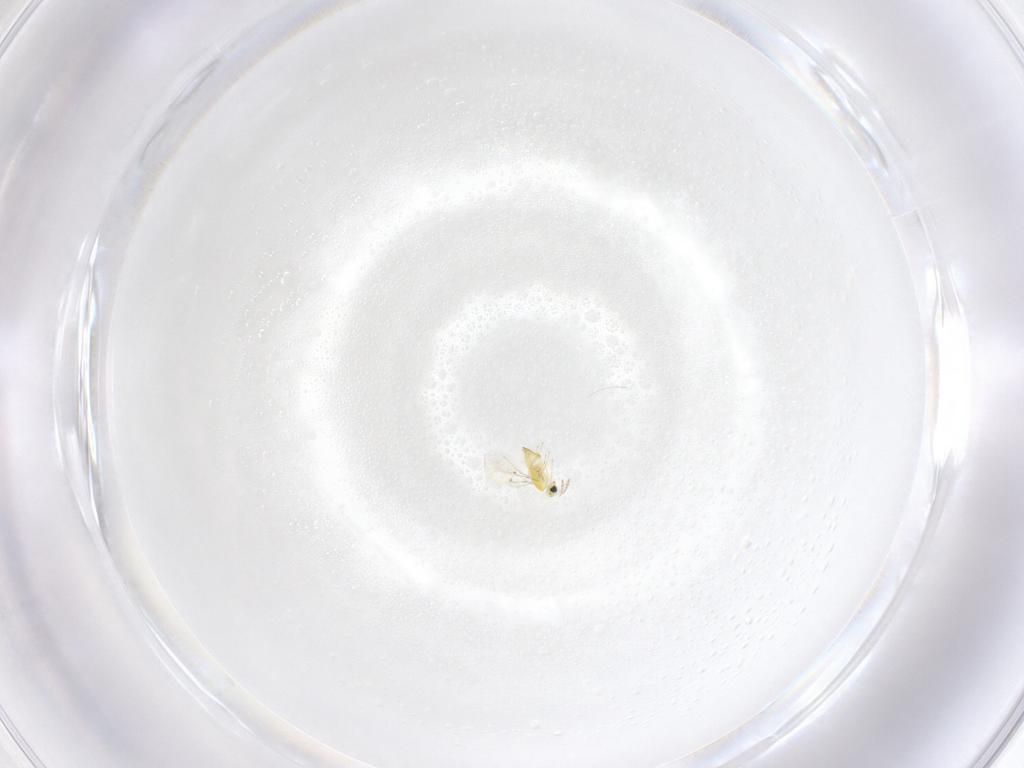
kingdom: Animalia
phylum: Arthropoda
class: Insecta
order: Hymenoptera
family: Trichogrammatidae
